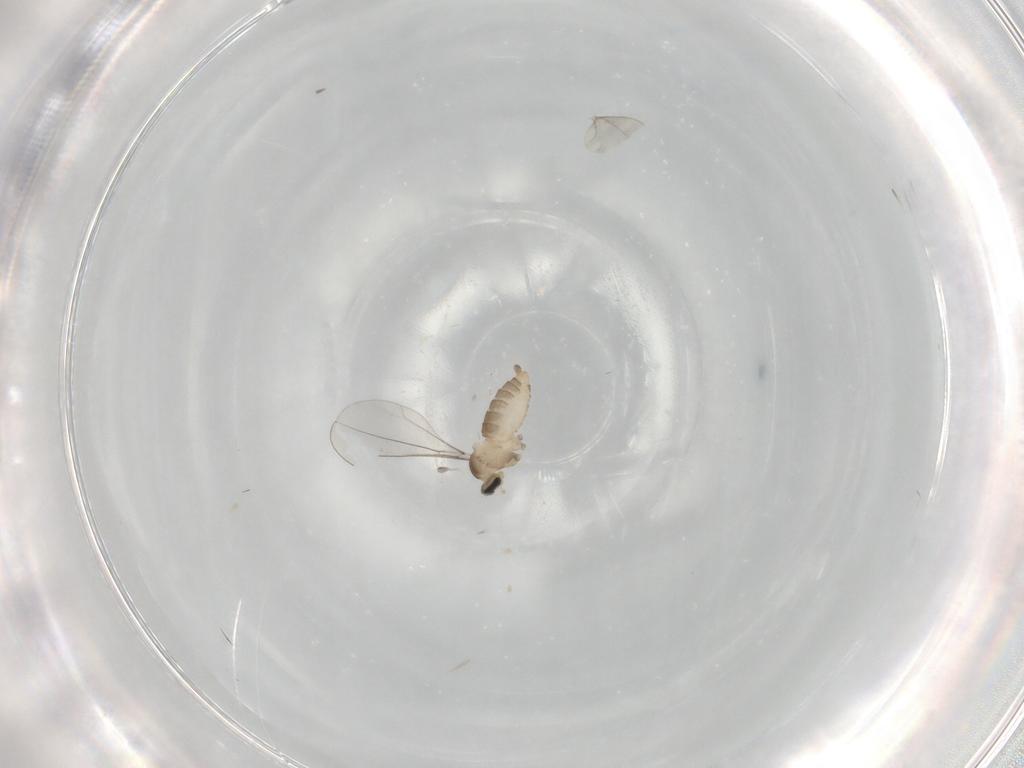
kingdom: Animalia
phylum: Arthropoda
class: Insecta
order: Diptera
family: Cecidomyiidae
